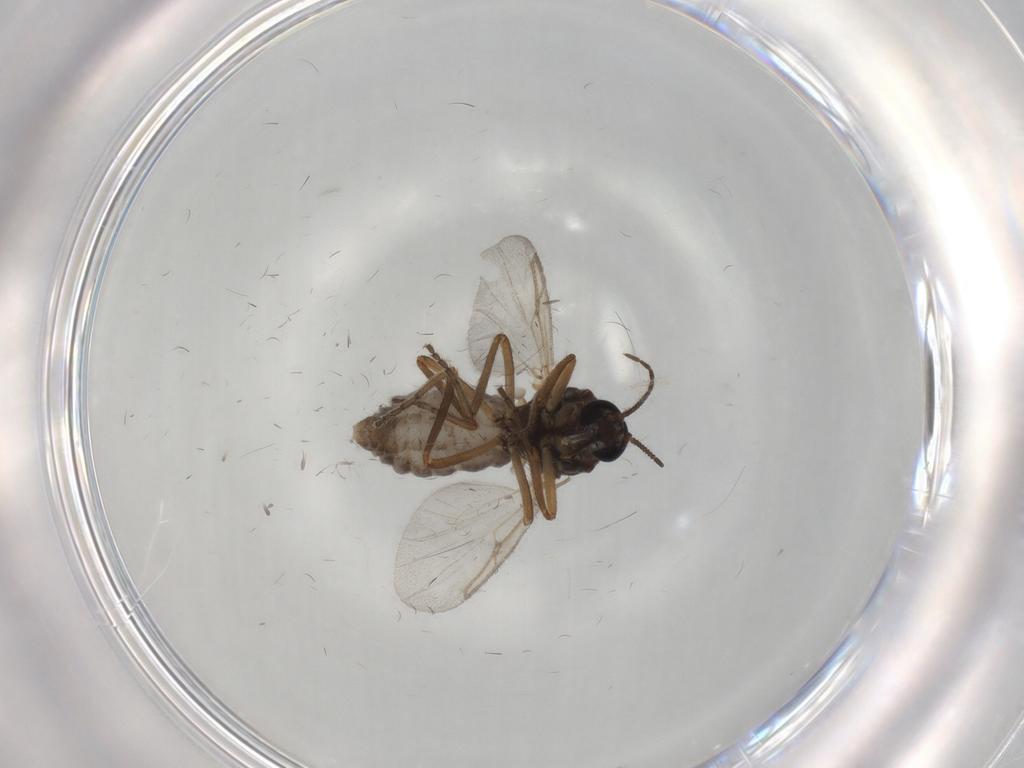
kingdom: Animalia
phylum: Arthropoda
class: Insecta
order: Diptera
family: Ceratopogonidae
